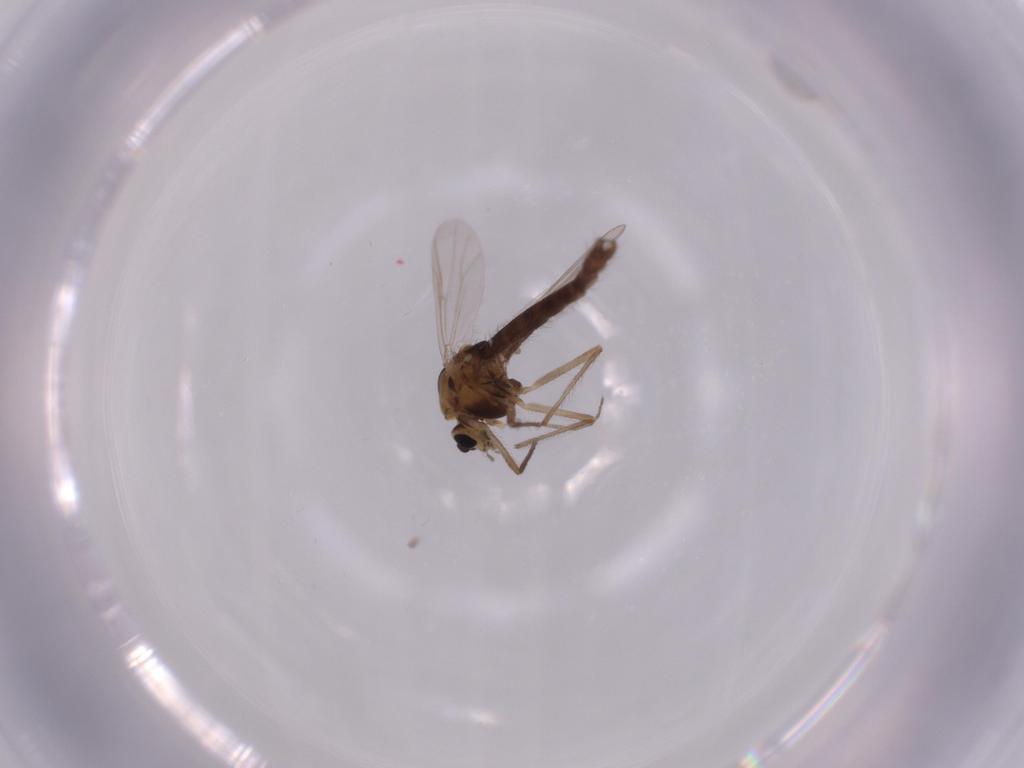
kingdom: Animalia
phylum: Arthropoda
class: Insecta
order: Diptera
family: Chironomidae
